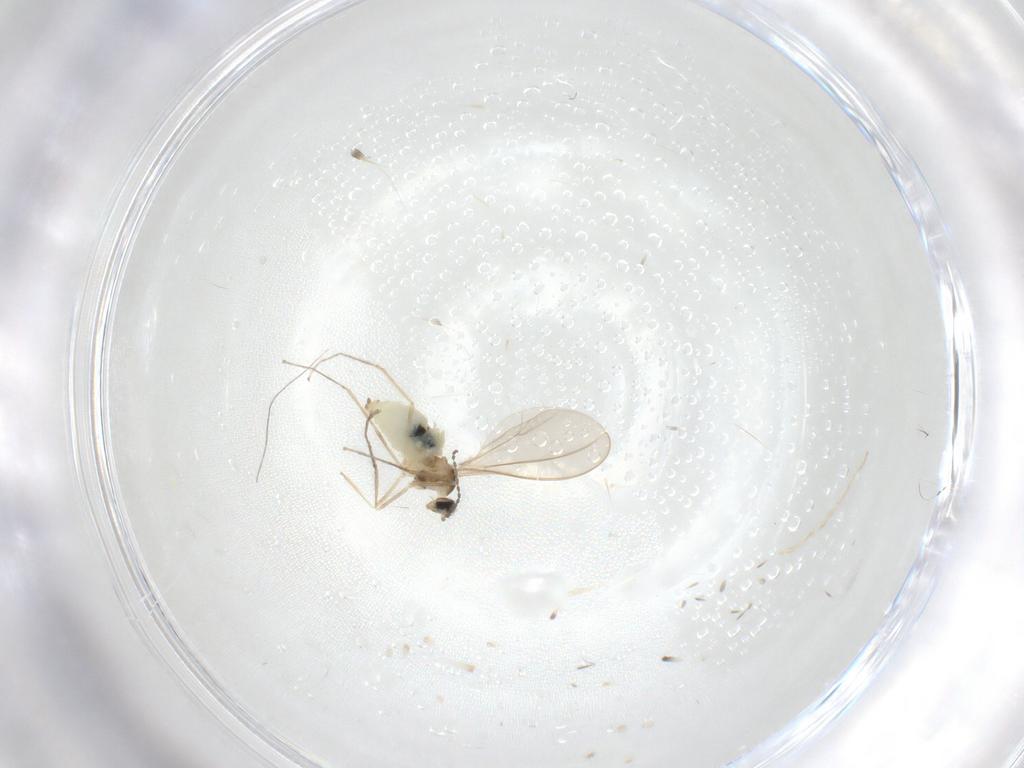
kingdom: Animalia
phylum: Arthropoda
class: Insecta
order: Diptera
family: Cecidomyiidae
